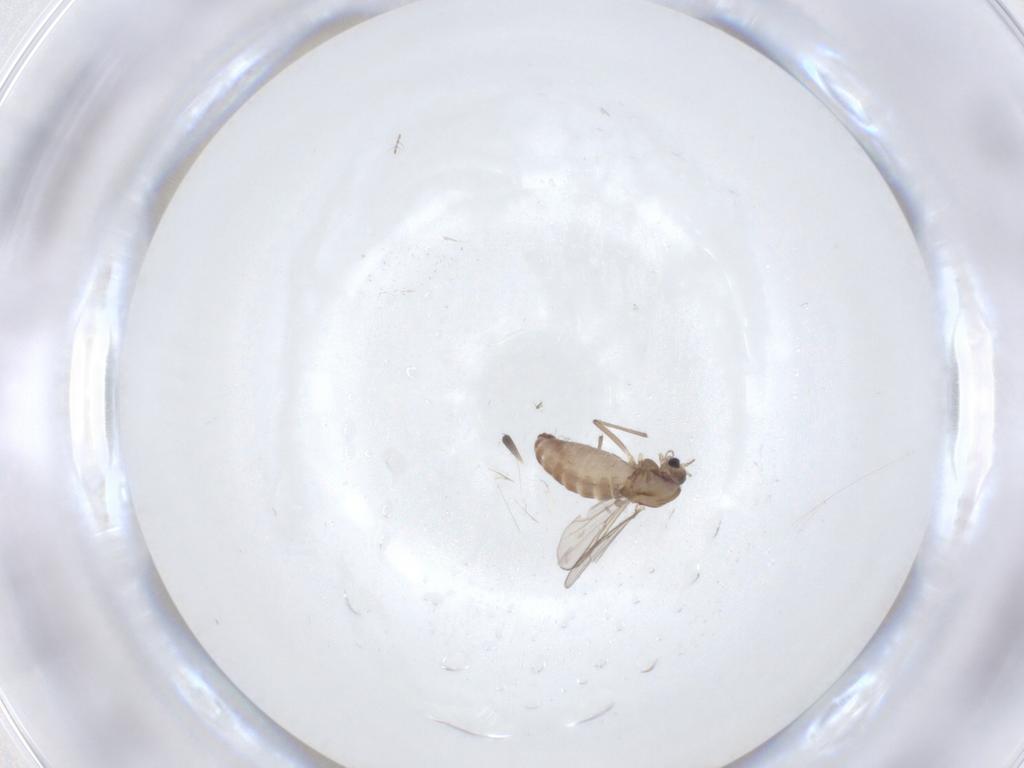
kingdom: Animalia
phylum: Arthropoda
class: Insecta
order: Diptera
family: Chironomidae
